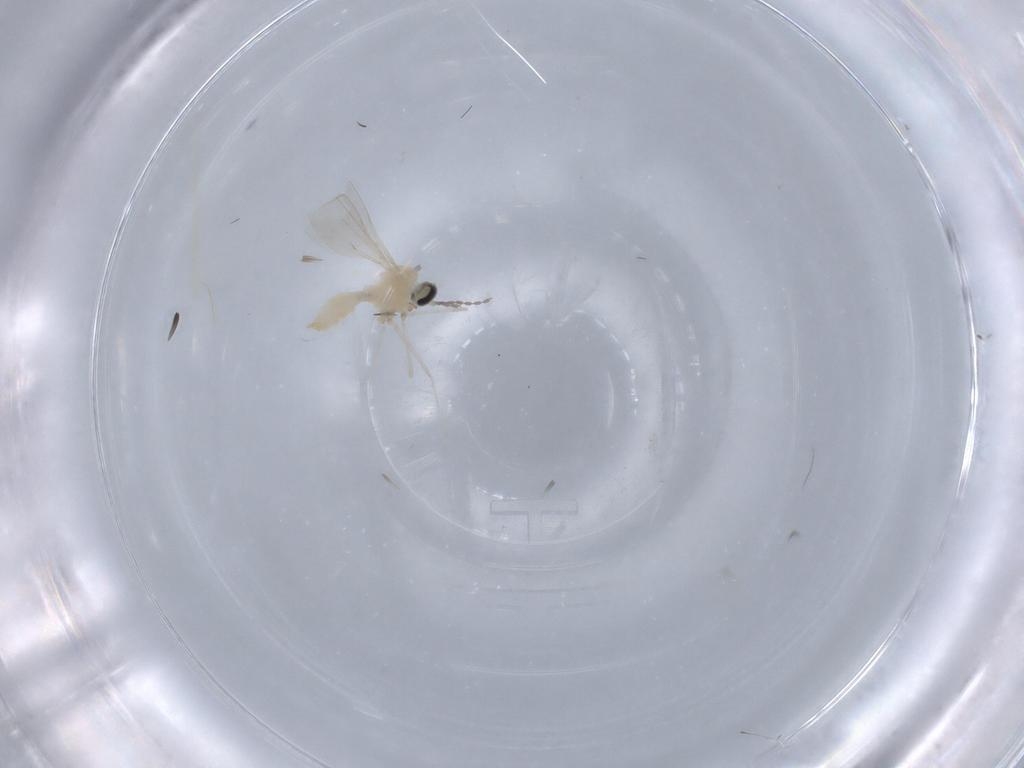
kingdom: Animalia
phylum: Arthropoda
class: Insecta
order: Diptera
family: Cecidomyiidae
